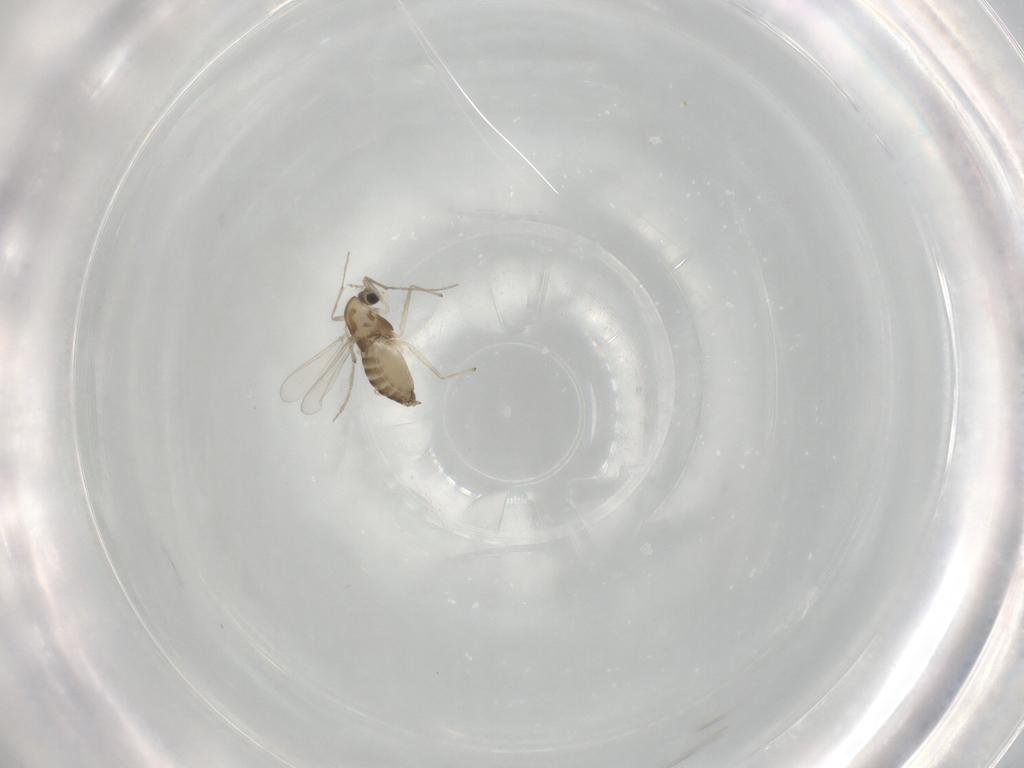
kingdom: Animalia
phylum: Arthropoda
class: Insecta
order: Diptera
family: Chironomidae
